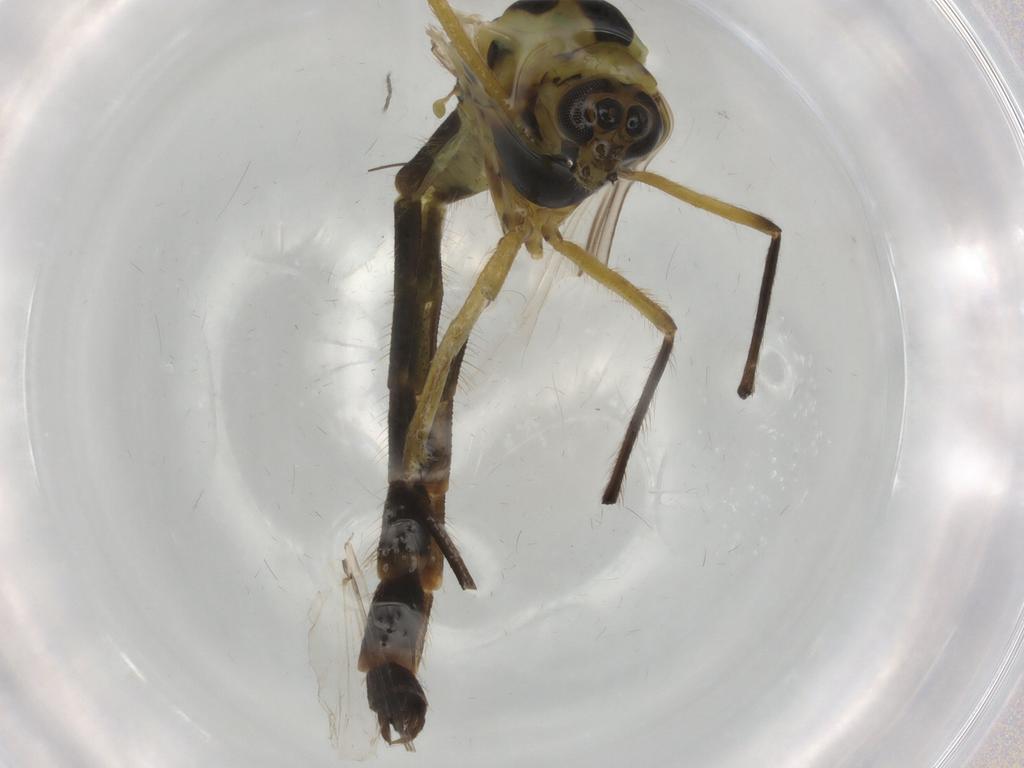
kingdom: Animalia
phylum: Arthropoda
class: Insecta
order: Diptera
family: Chironomidae
